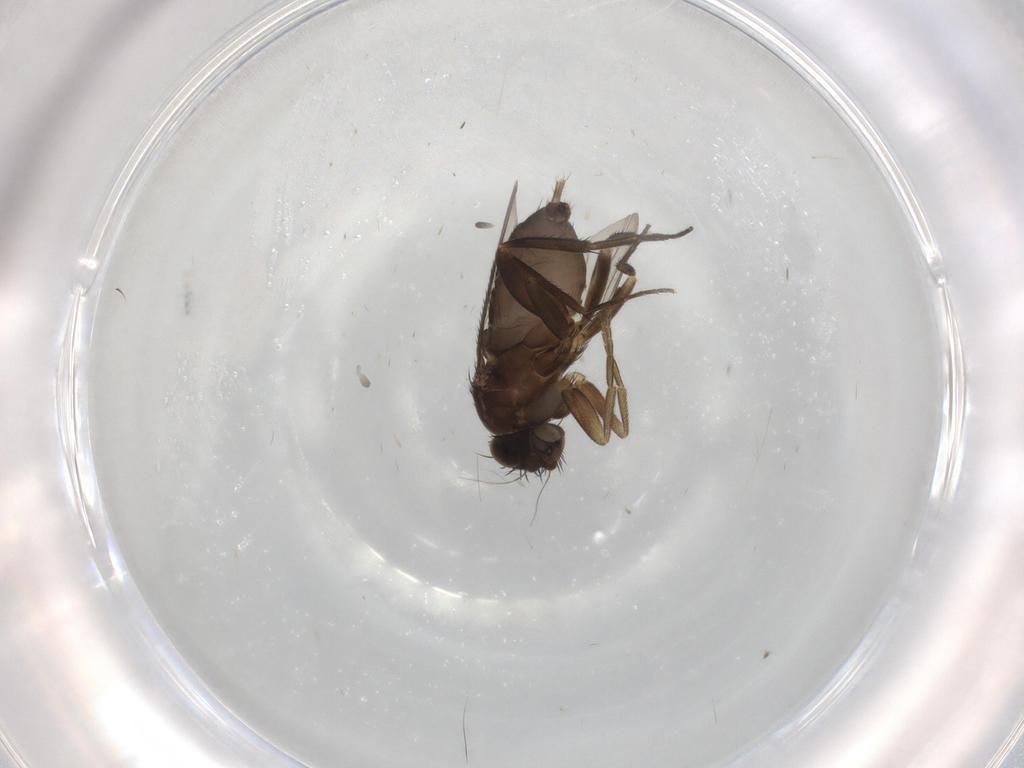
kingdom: Animalia
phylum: Arthropoda
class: Insecta
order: Diptera
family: Phoridae
